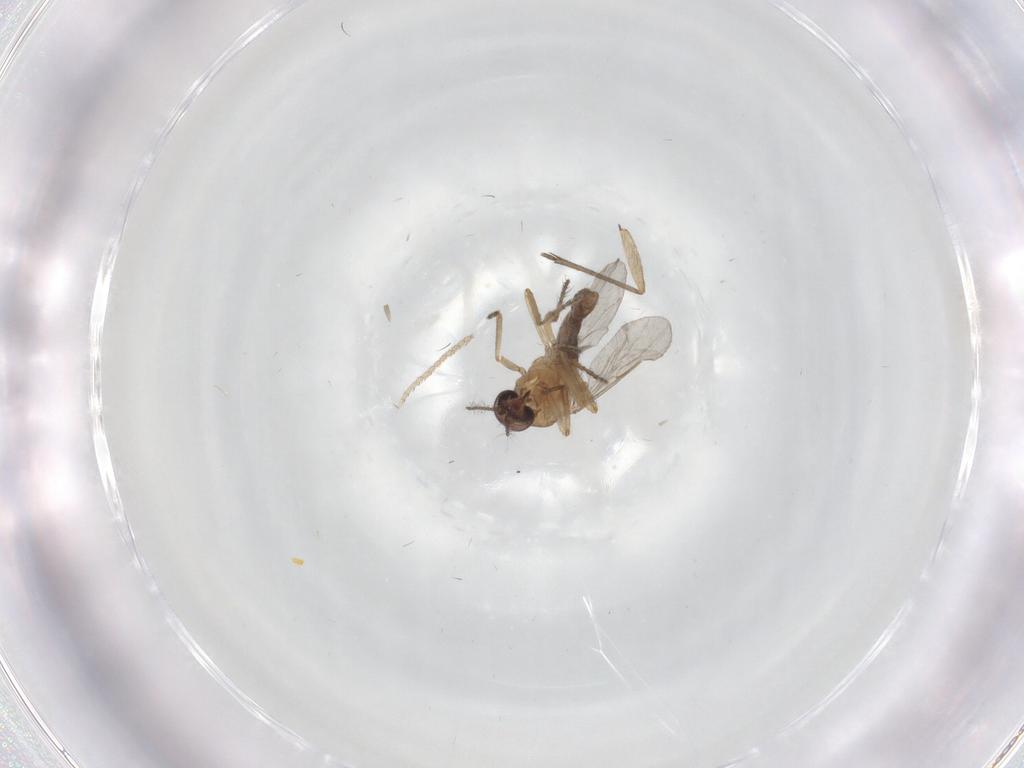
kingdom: Animalia
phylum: Arthropoda
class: Insecta
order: Diptera
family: Sciaridae
